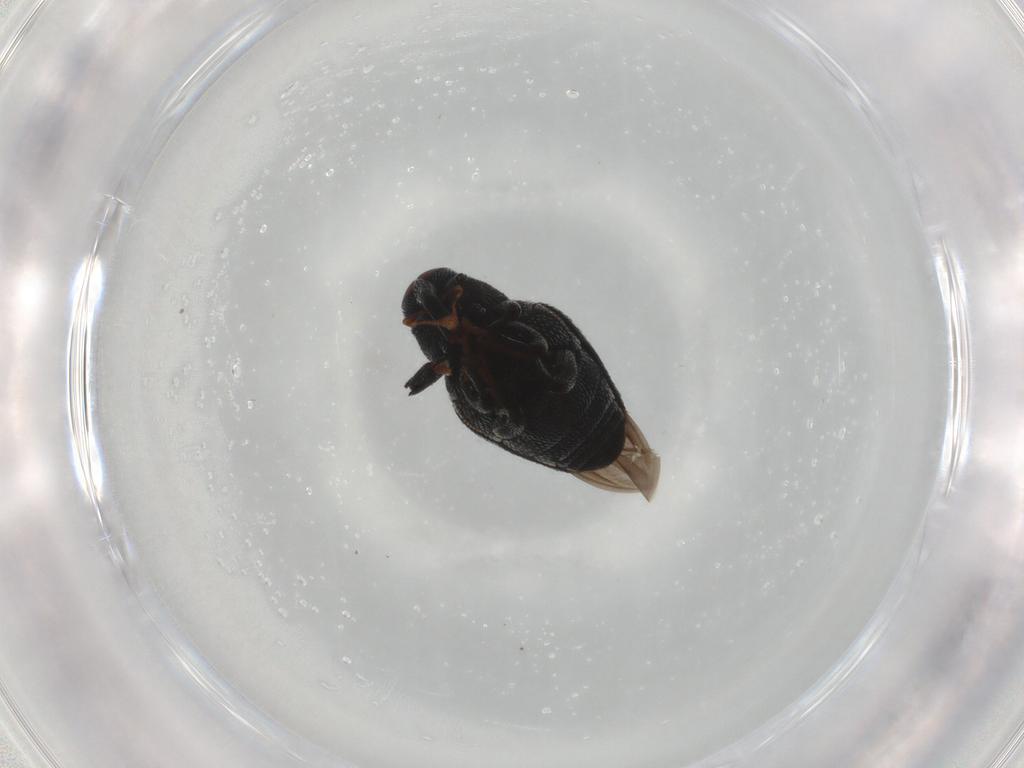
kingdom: Animalia
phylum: Arthropoda
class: Insecta
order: Coleoptera
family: Curculionidae
